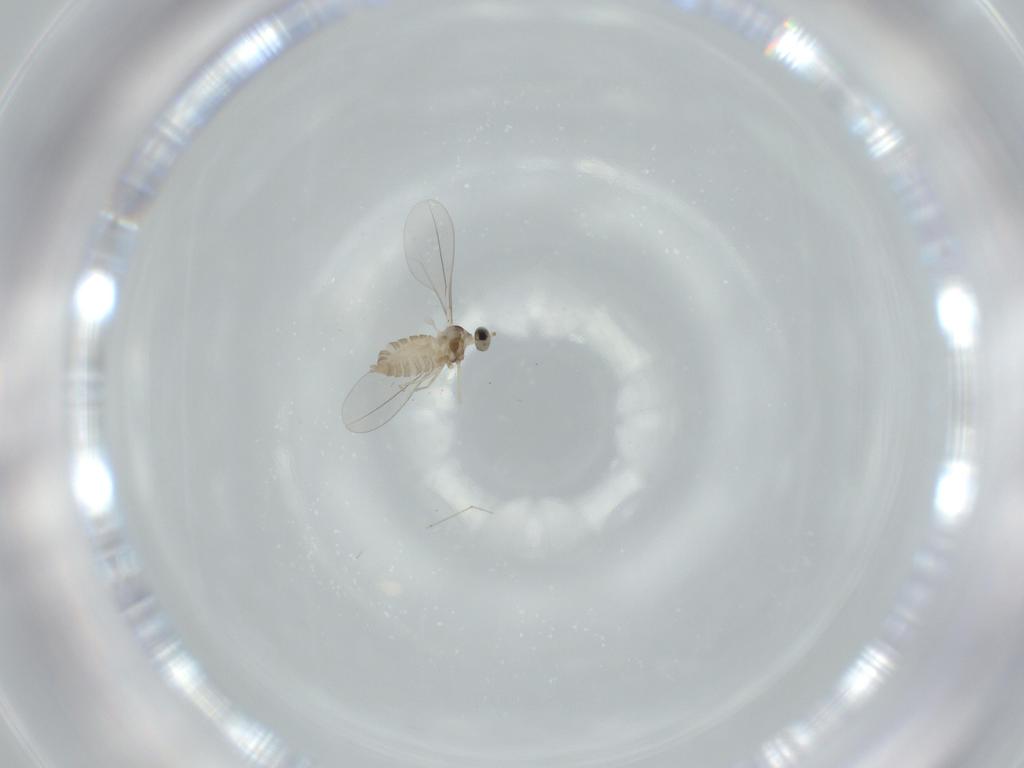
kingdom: Animalia
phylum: Arthropoda
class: Insecta
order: Diptera
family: Cecidomyiidae
